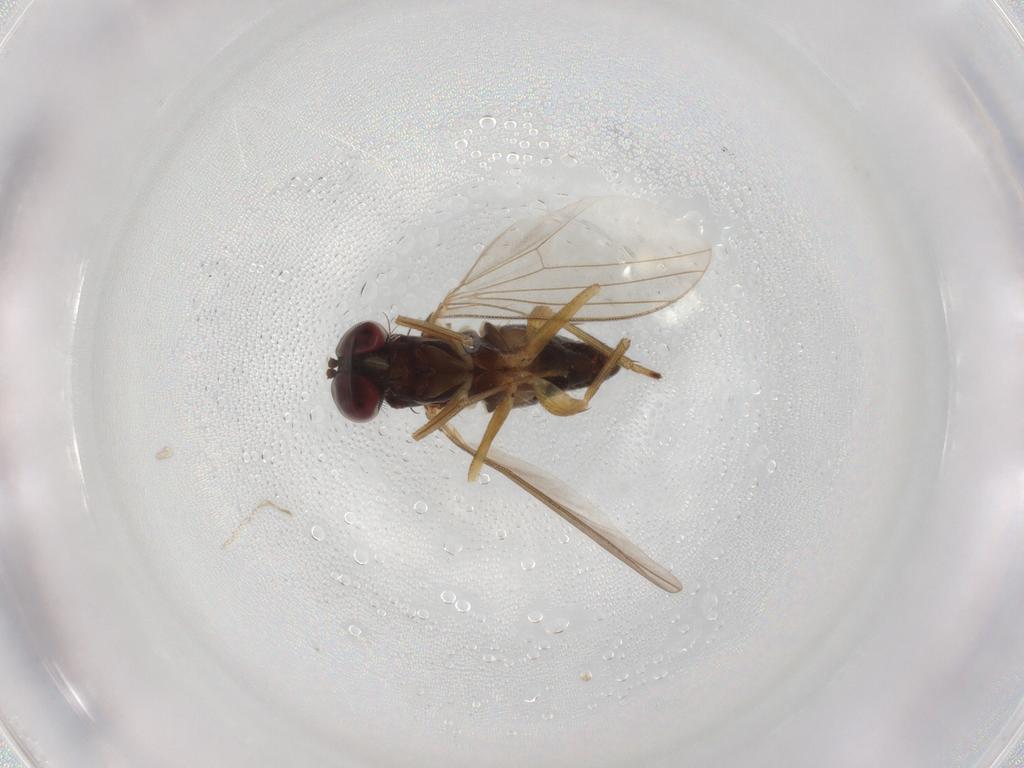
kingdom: Animalia
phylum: Arthropoda
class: Insecta
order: Diptera
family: Dolichopodidae
